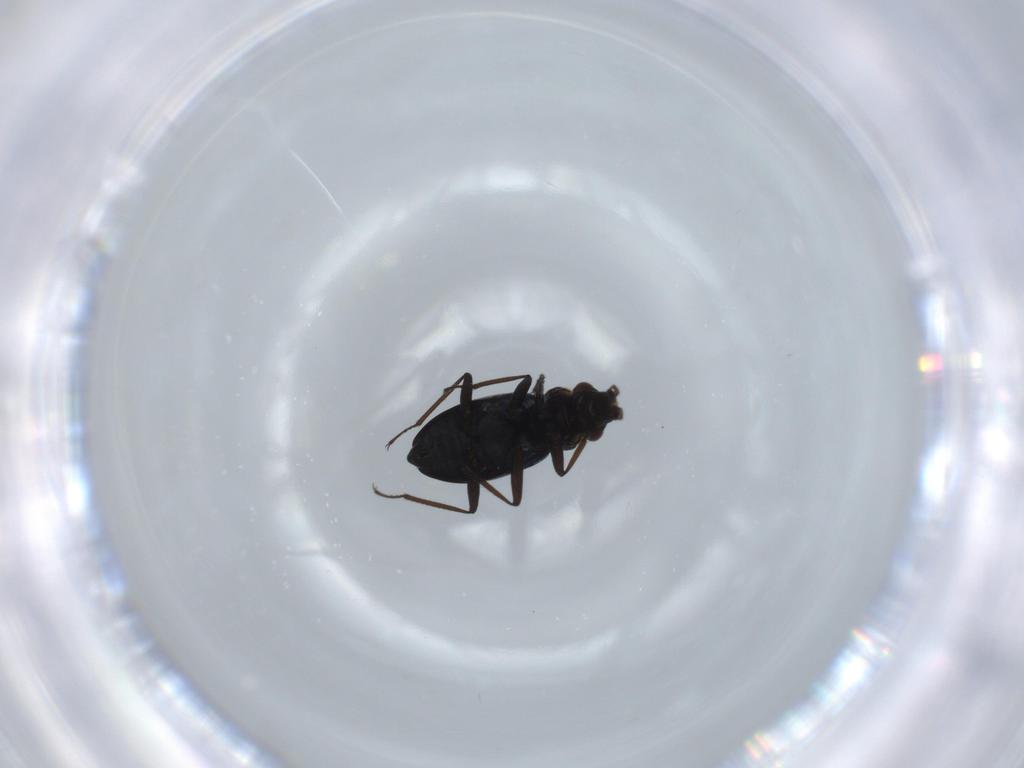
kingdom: Animalia
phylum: Arthropoda
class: Insecta
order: Coleoptera
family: Hydraenidae
